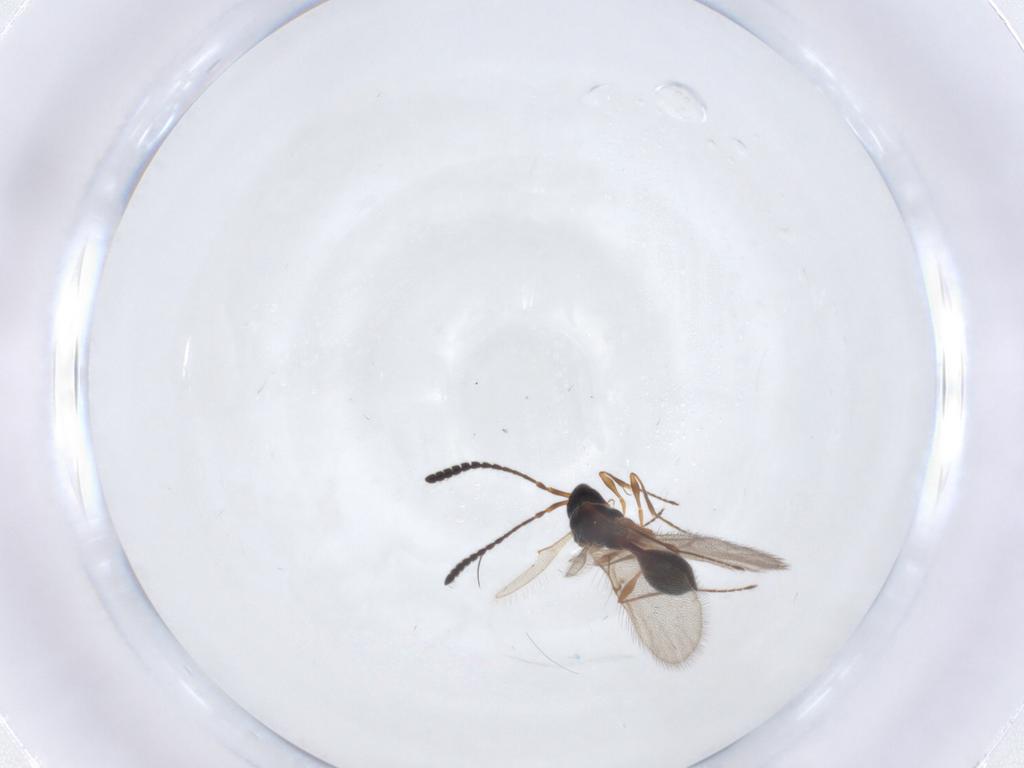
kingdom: Animalia
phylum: Arthropoda
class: Insecta
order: Hymenoptera
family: Diapriidae
